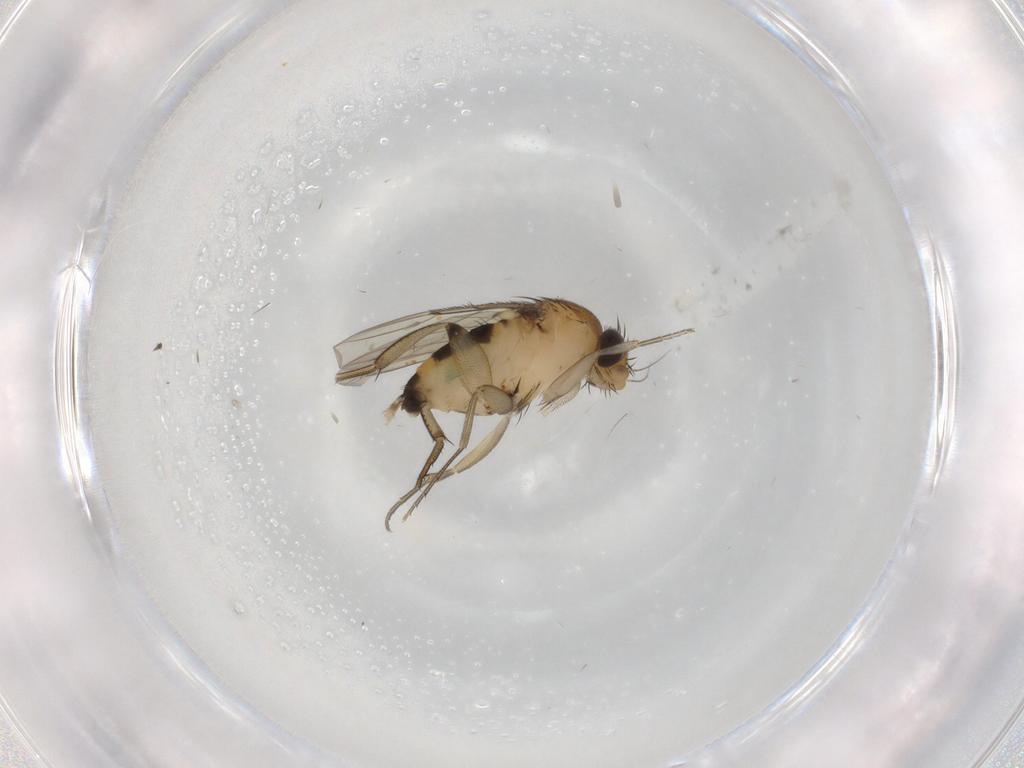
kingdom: Animalia
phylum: Arthropoda
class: Insecta
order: Diptera
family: Phoridae
